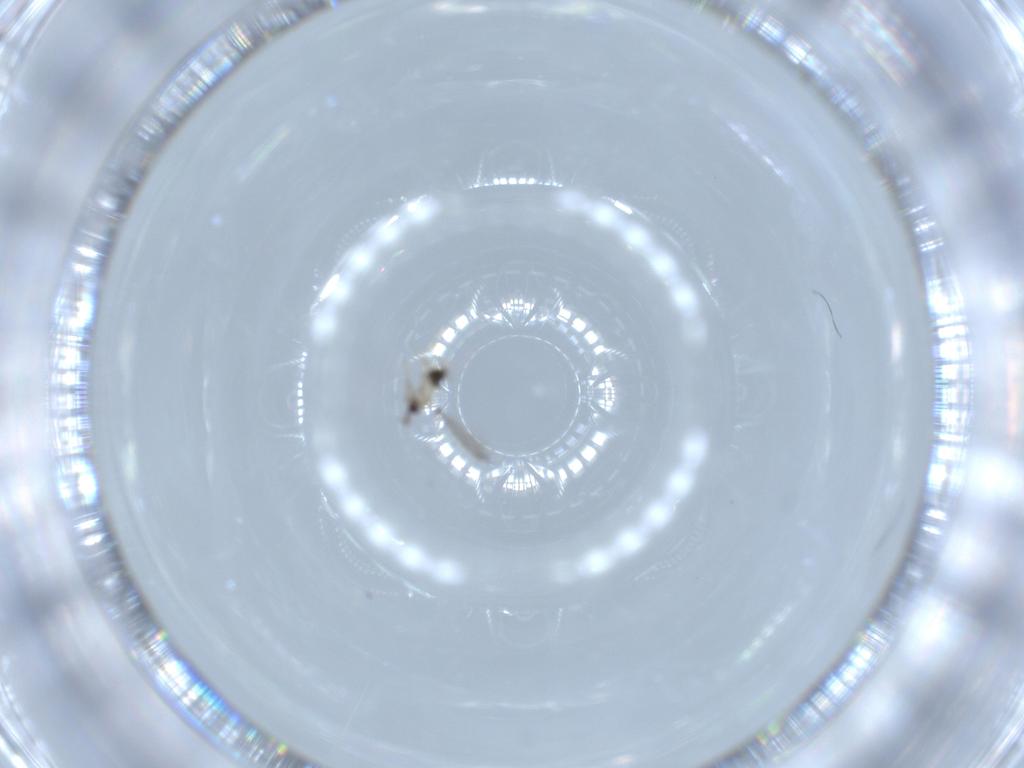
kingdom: Animalia
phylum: Arthropoda
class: Insecta
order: Hymenoptera
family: Mymaridae
